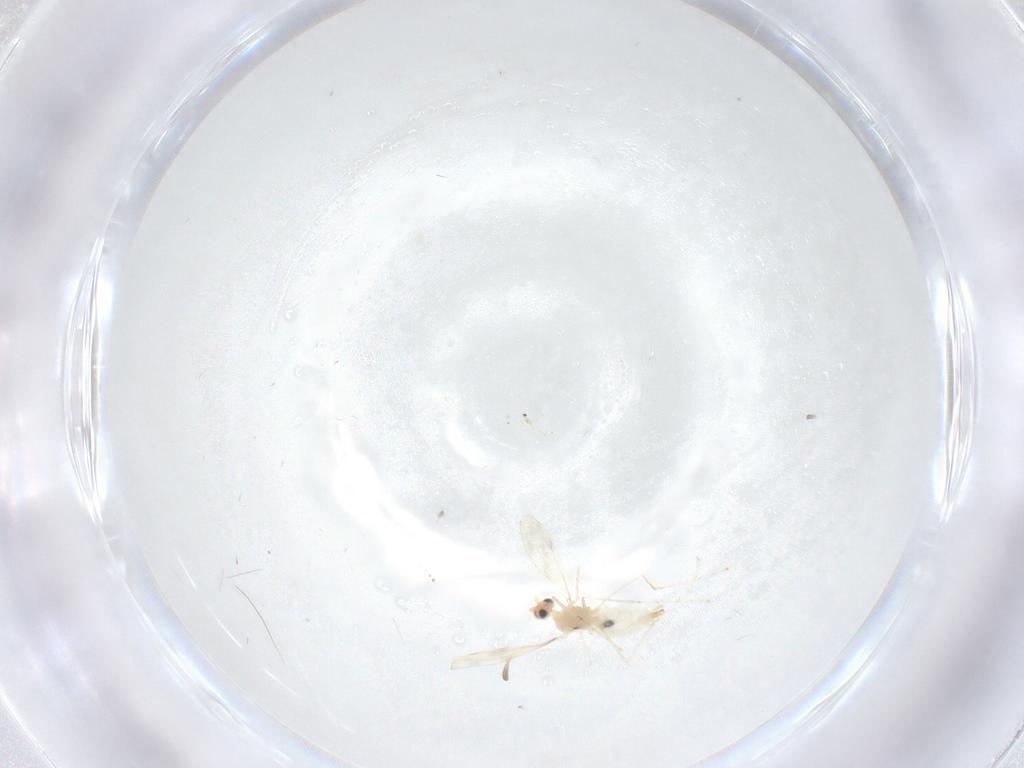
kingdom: Animalia
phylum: Arthropoda
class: Insecta
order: Diptera
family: Cecidomyiidae
